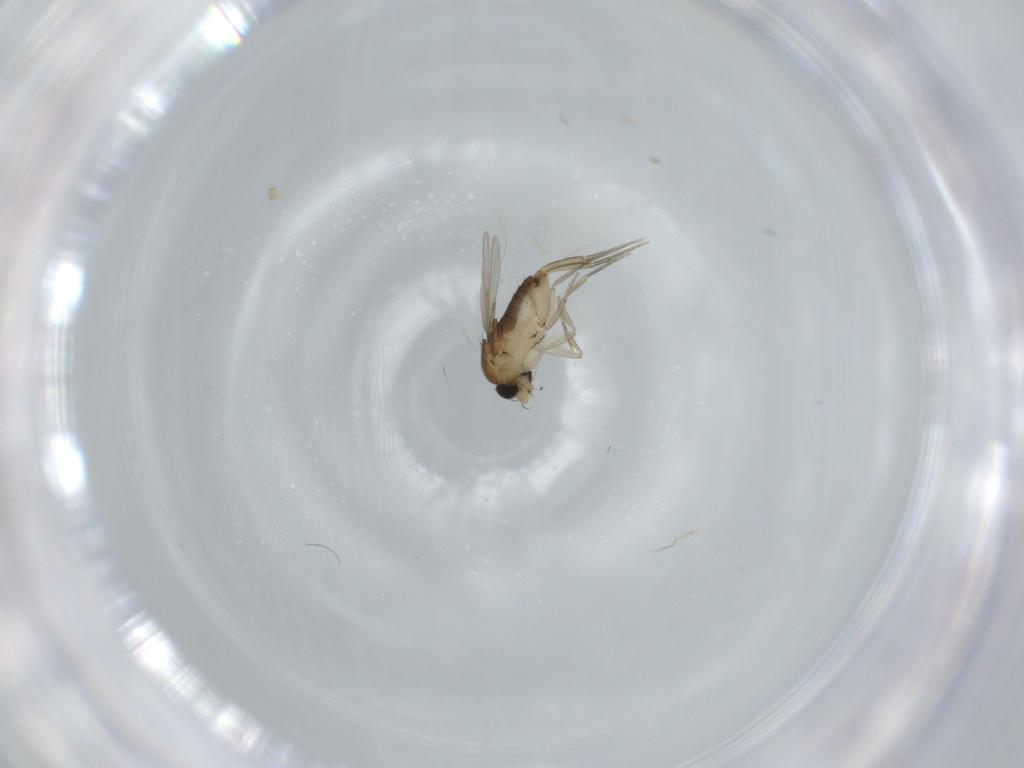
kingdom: Animalia
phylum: Arthropoda
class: Insecta
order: Diptera
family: Phoridae
